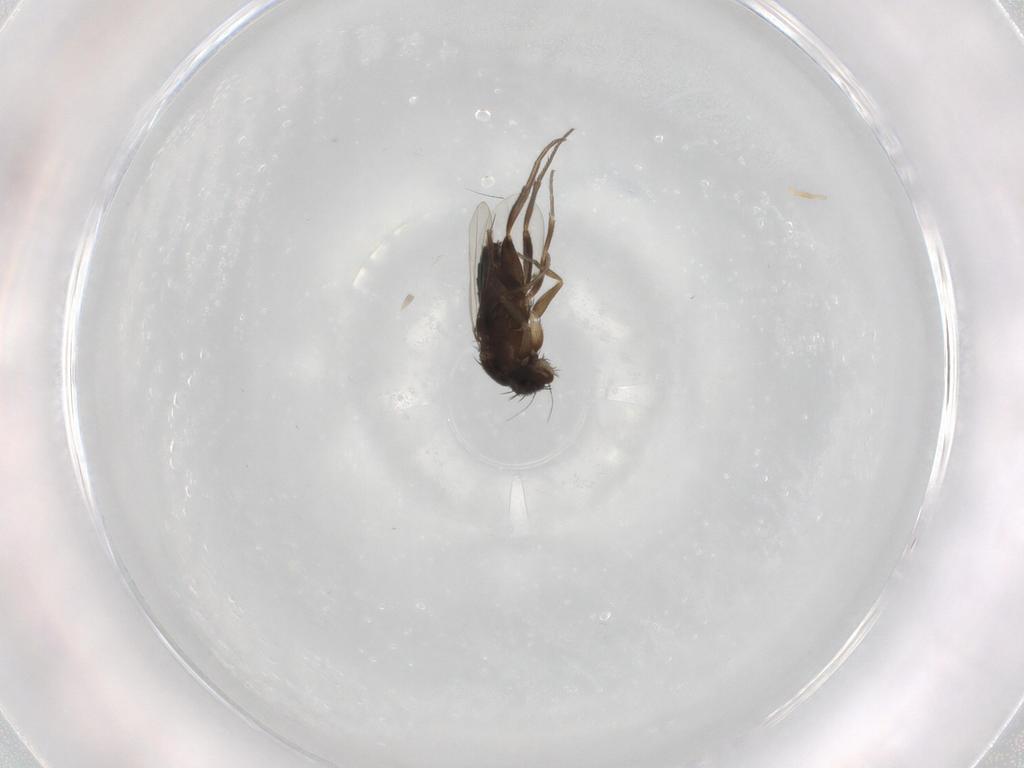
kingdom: Animalia
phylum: Arthropoda
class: Insecta
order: Diptera
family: Phoridae
